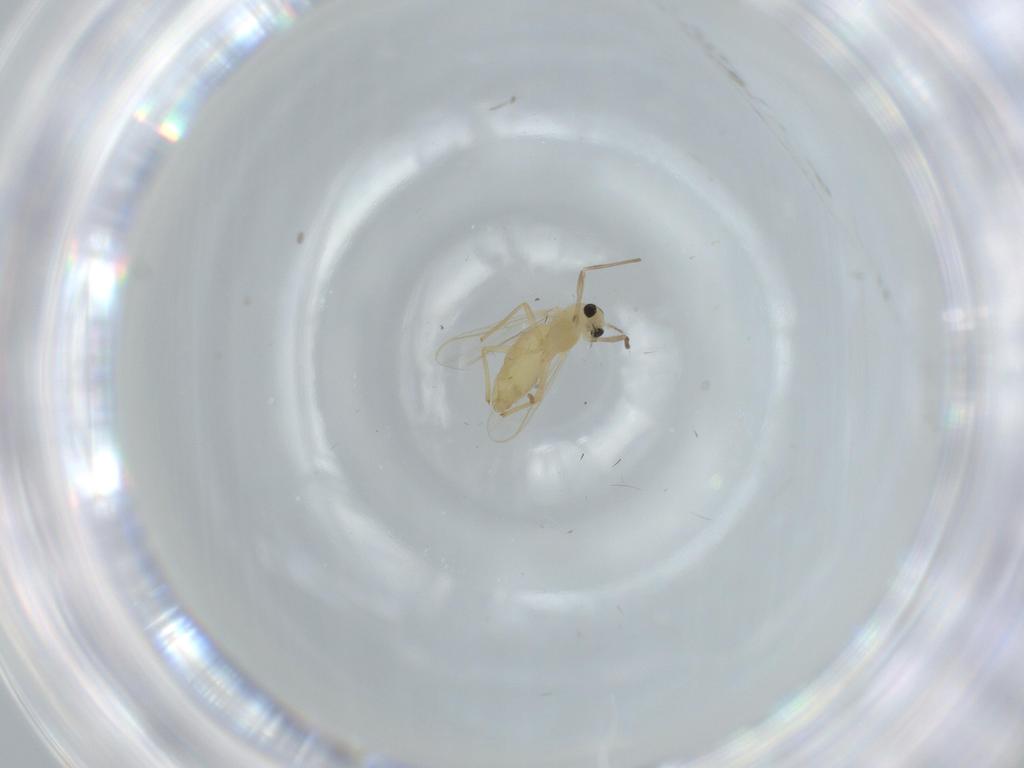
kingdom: Animalia
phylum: Arthropoda
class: Insecta
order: Diptera
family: Chironomidae
